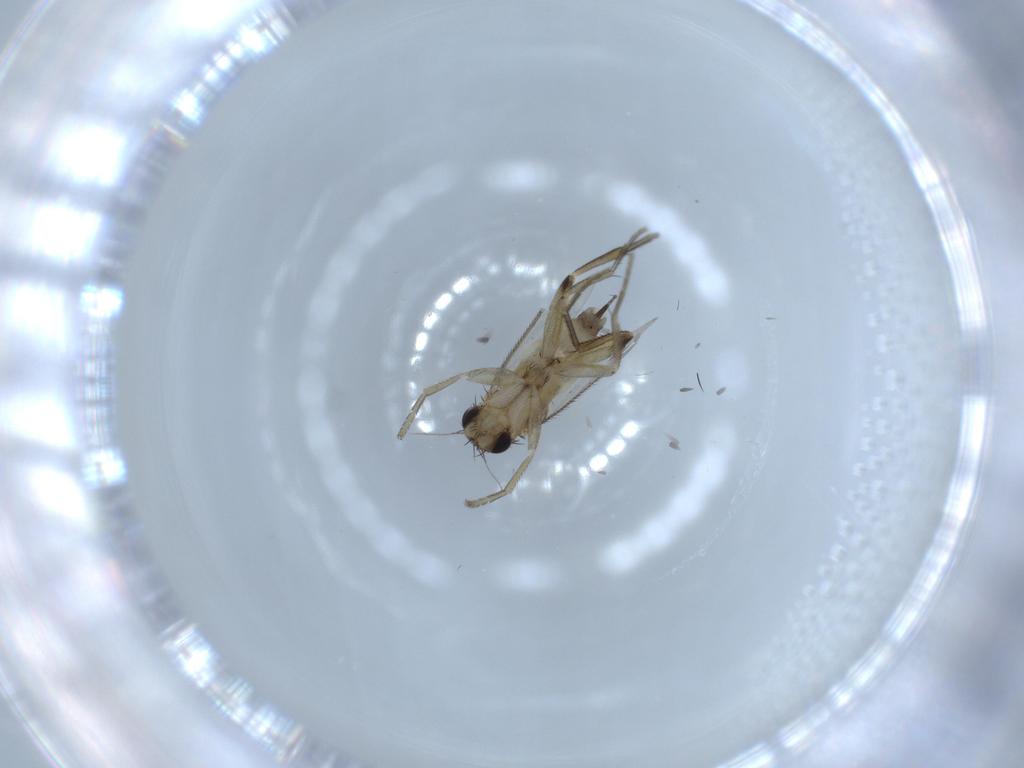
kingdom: Animalia
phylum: Arthropoda
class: Insecta
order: Diptera
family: Phoridae
